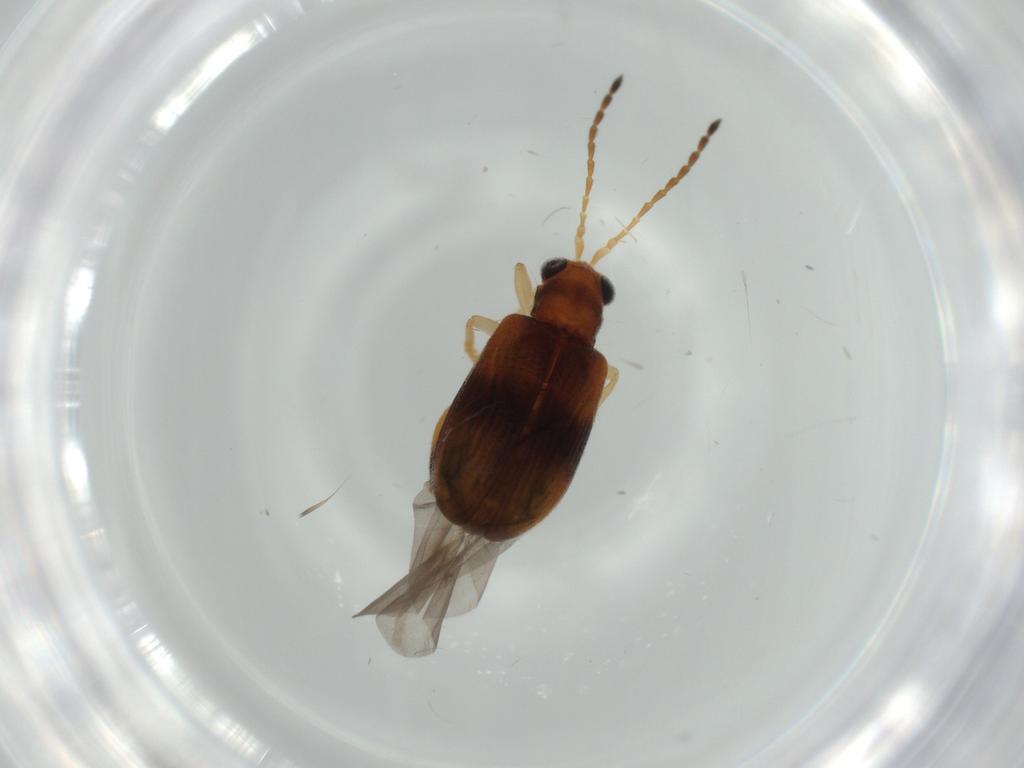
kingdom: Animalia
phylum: Arthropoda
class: Insecta
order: Coleoptera
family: Chrysomelidae
